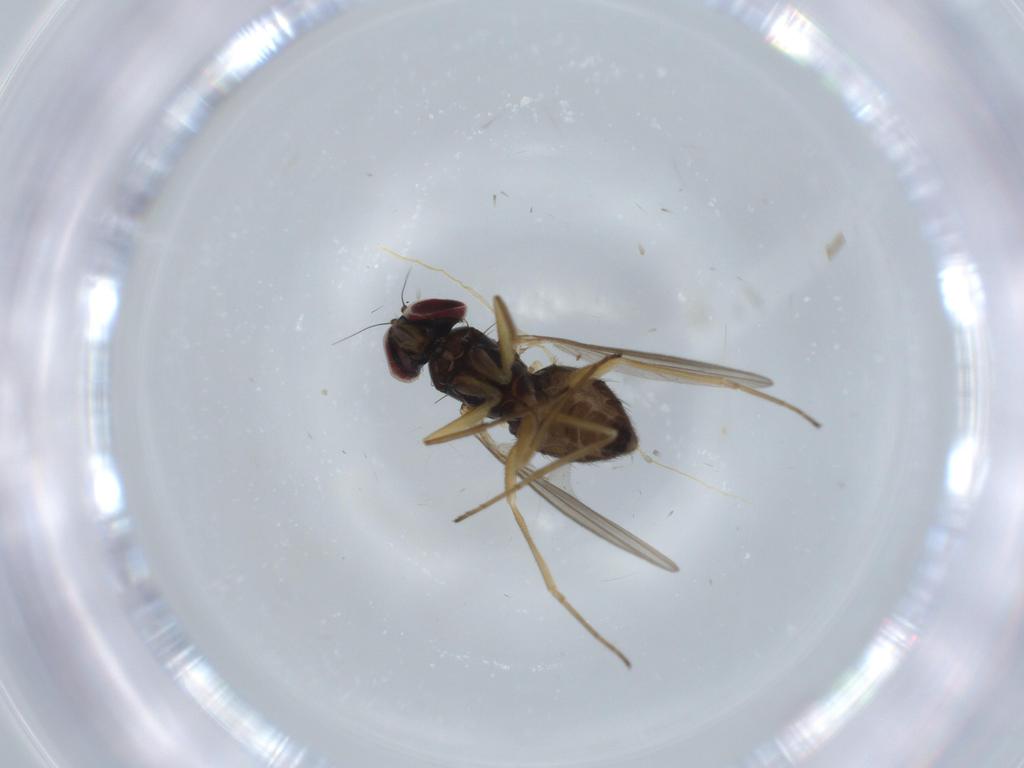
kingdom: Animalia
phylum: Arthropoda
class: Insecta
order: Diptera
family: Dolichopodidae
